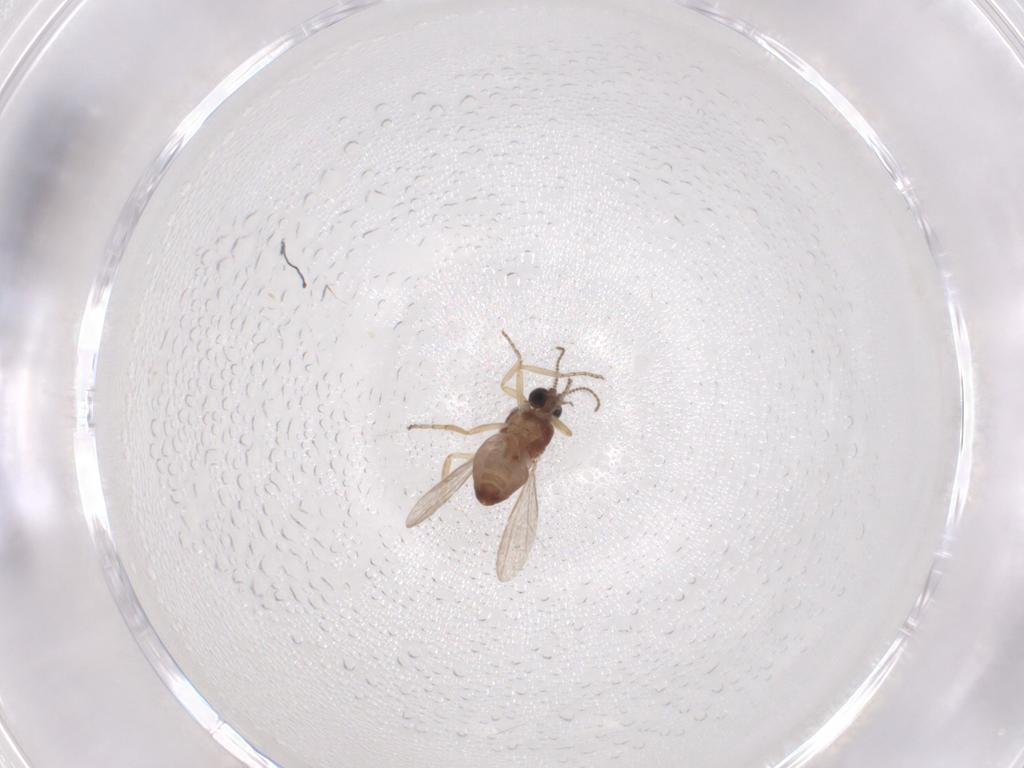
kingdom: Animalia
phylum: Arthropoda
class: Insecta
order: Diptera
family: Ceratopogonidae
